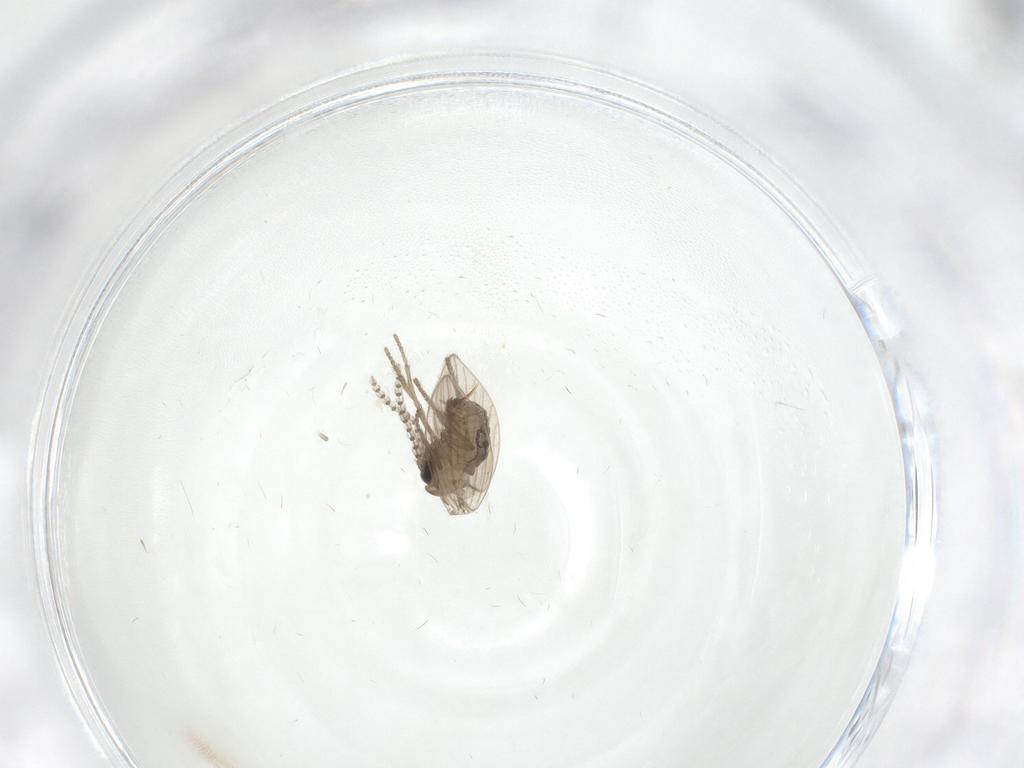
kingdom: Animalia
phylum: Arthropoda
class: Insecta
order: Diptera
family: Psychodidae
